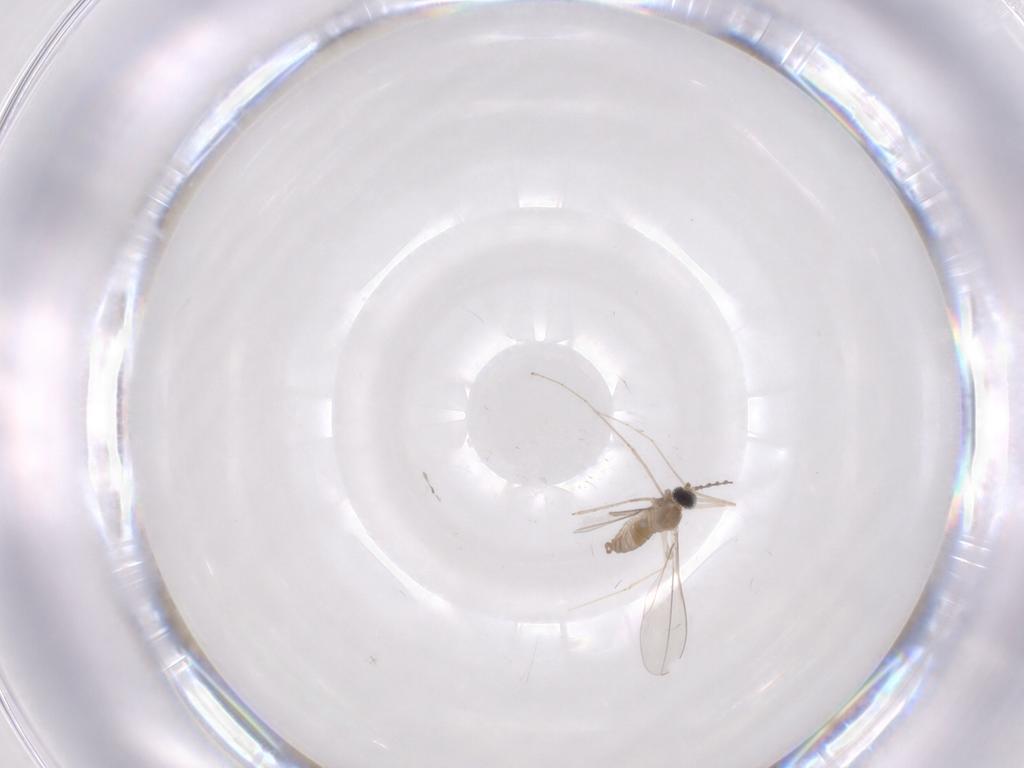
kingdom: Animalia
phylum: Arthropoda
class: Insecta
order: Diptera
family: Cecidomyiidae
